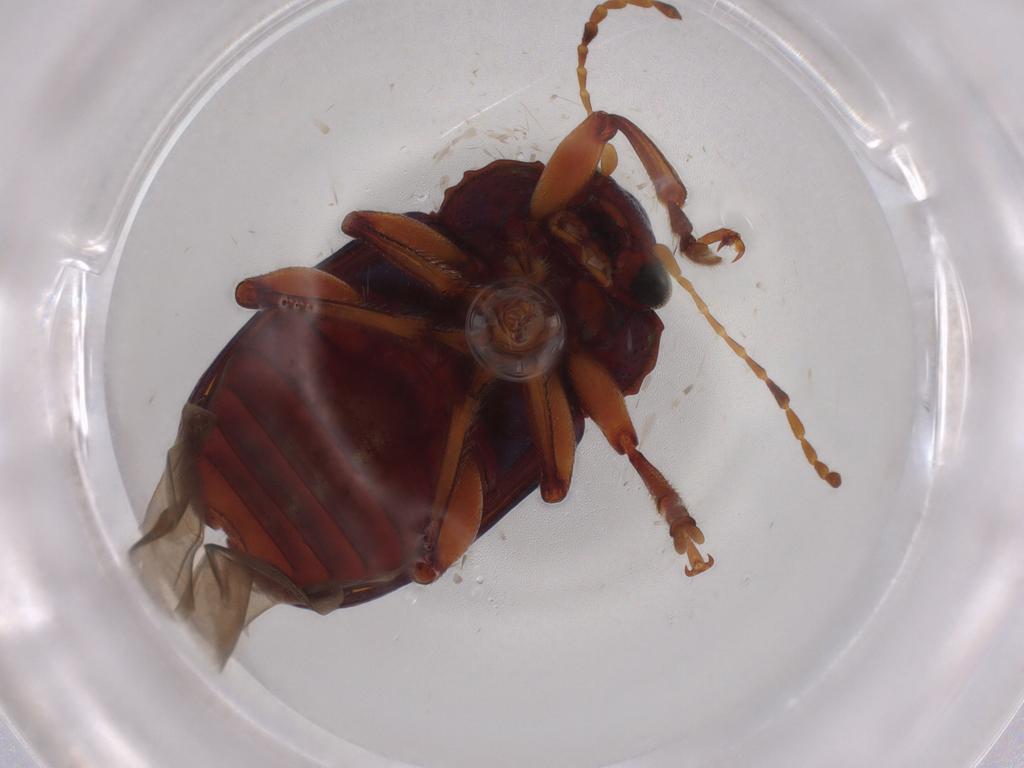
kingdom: Animalia
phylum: Arthropoda
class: Insecta
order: Coleoptera
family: Chrysomelidae
